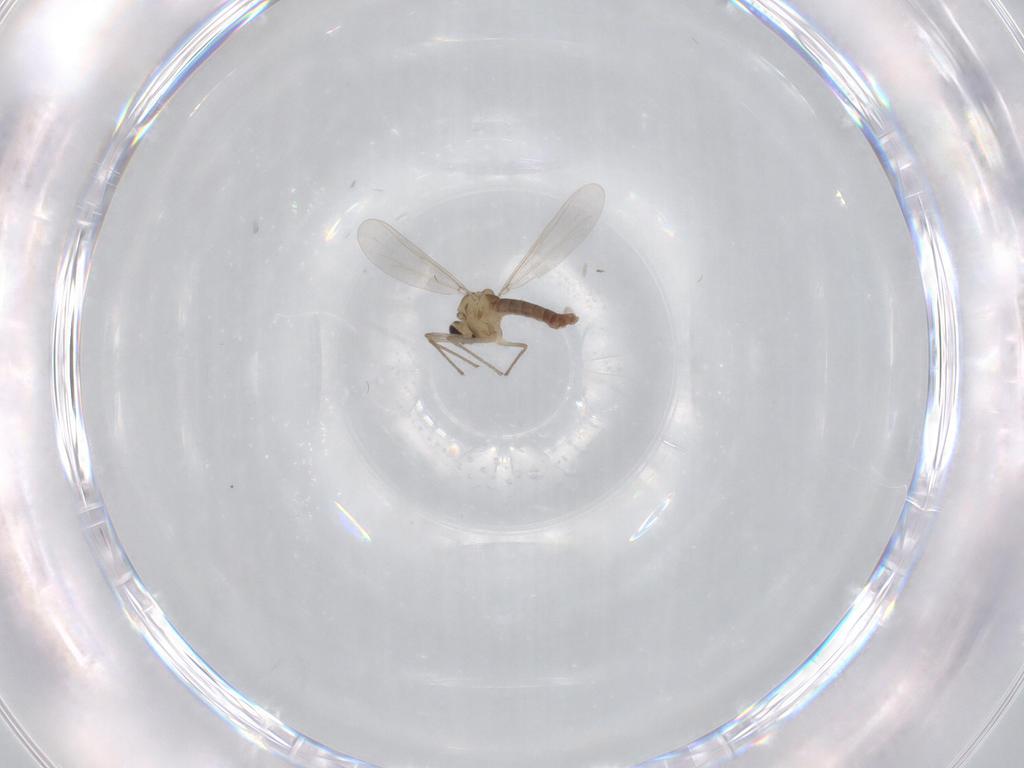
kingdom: Animalia
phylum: Arthropoda
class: Insecta
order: Diptera
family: Chironomidae
